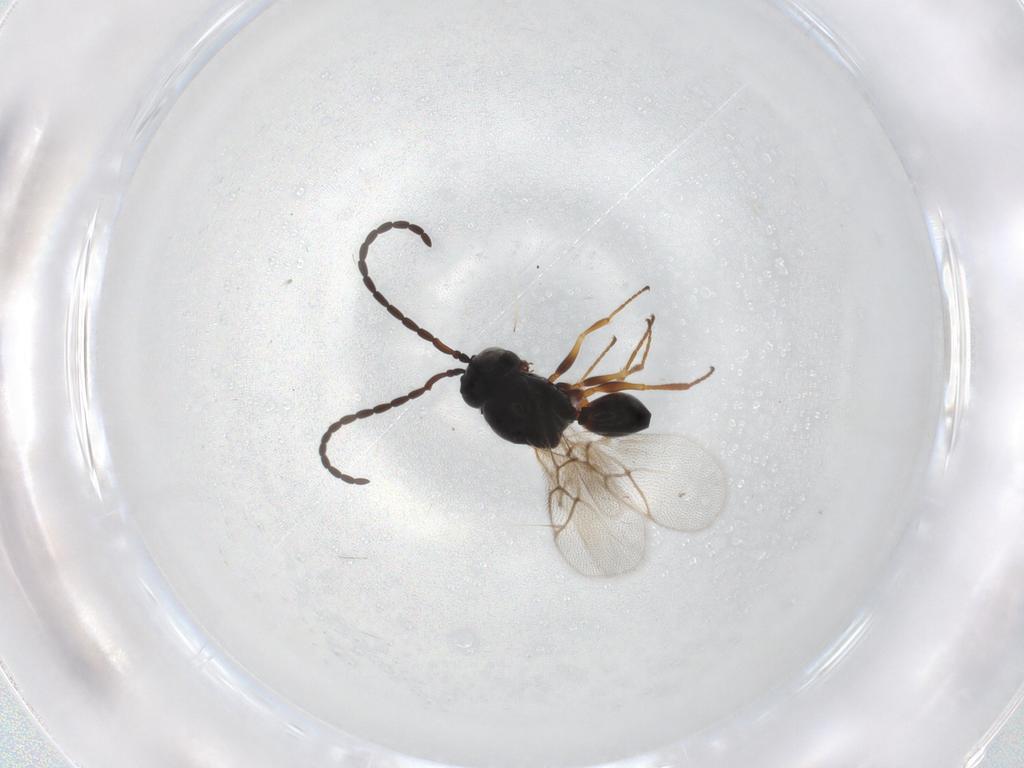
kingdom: Animalia
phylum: Arthropoda
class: Insecta
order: Hymenoptera
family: Figitidae
